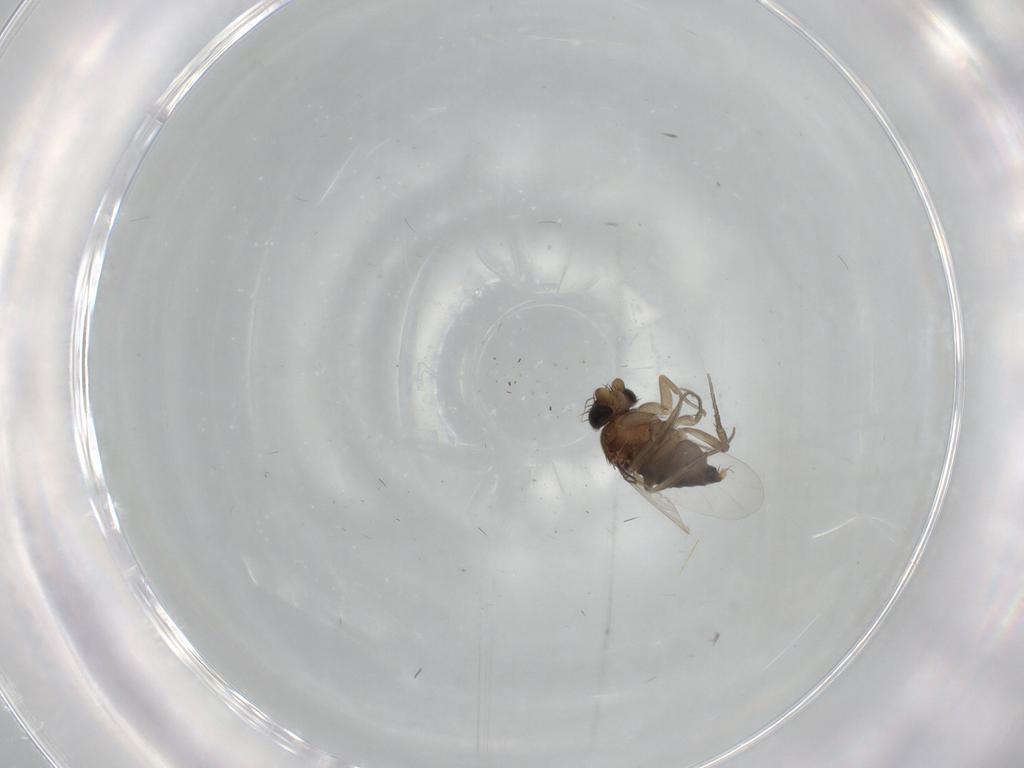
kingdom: Animalia
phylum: Arthropoda
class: Insecta
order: Diptera
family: Phoridae
